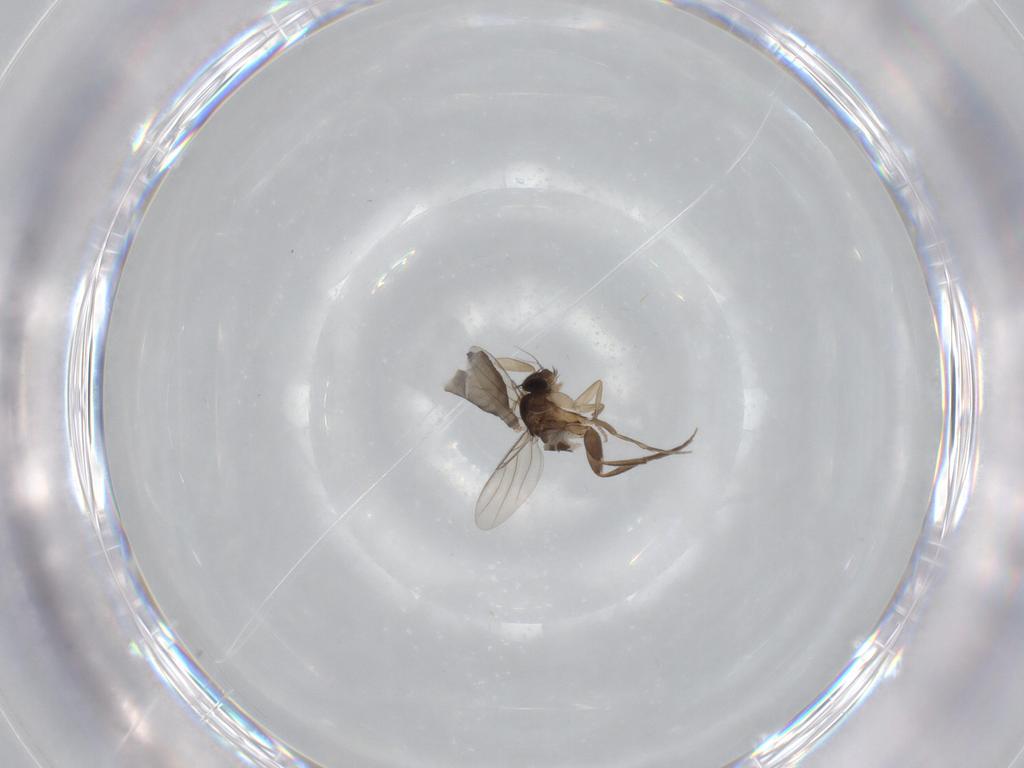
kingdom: Animalia
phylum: Arthropoda
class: Insecta
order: Diptera
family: Phoridae
